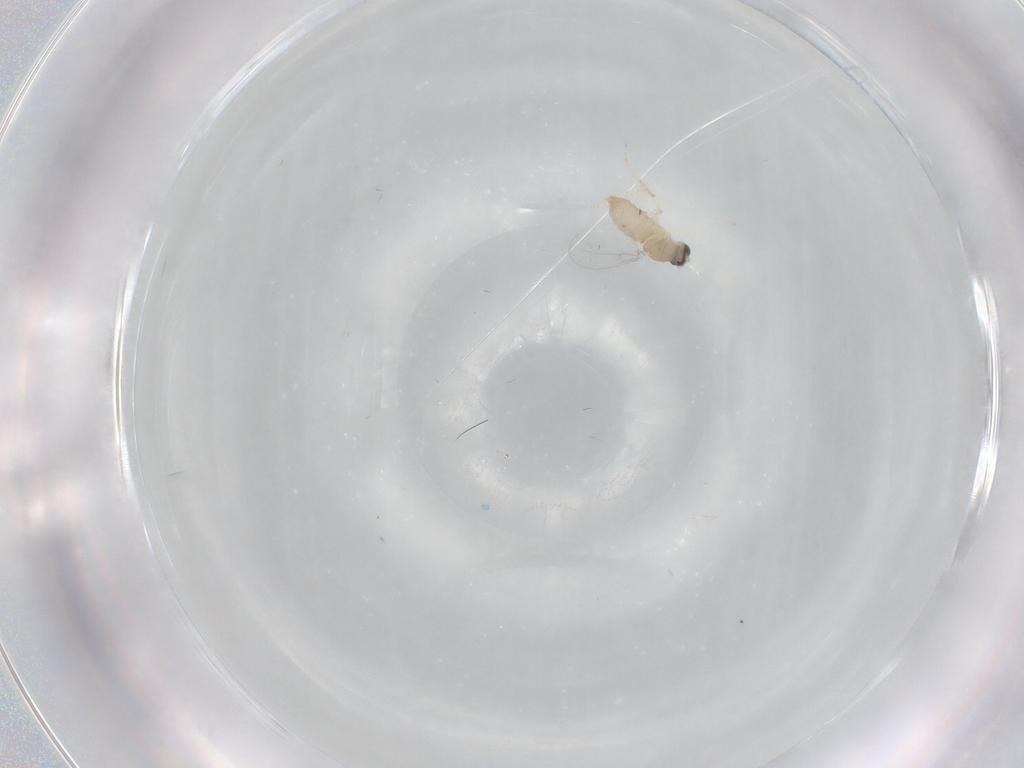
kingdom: Animalia
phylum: Arthropoda
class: Insecta
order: Diptera
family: Cecidomyiidae
